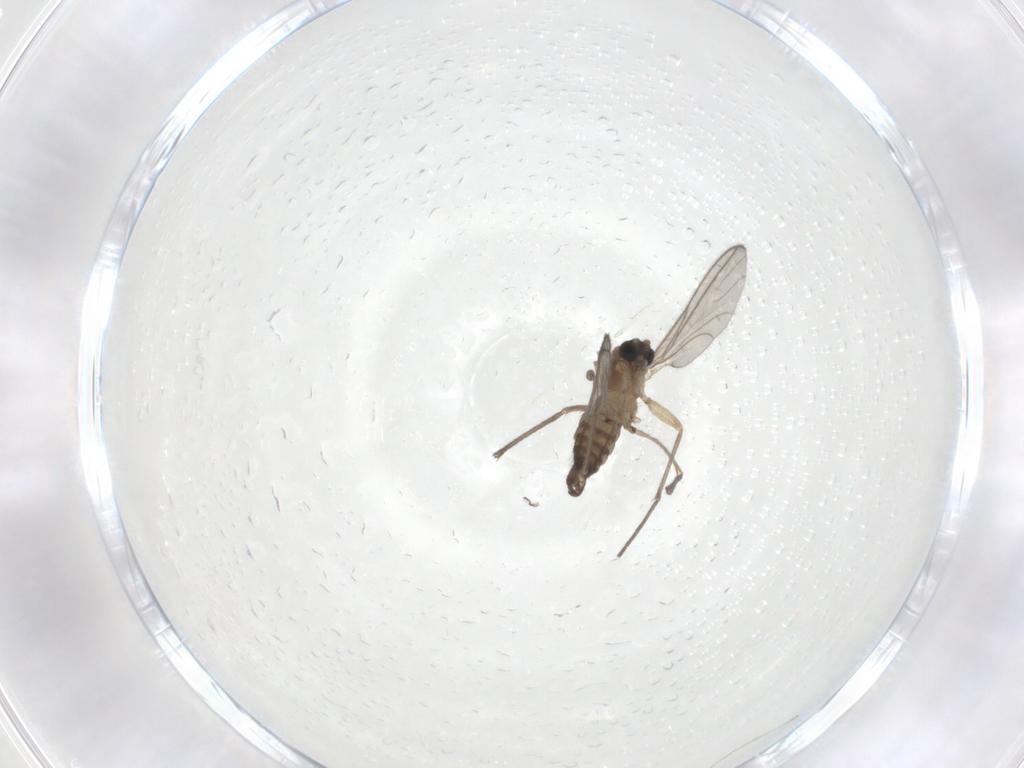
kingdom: Animalia
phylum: Arthropoda
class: Insecta
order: Diptera
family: Sciaridae
